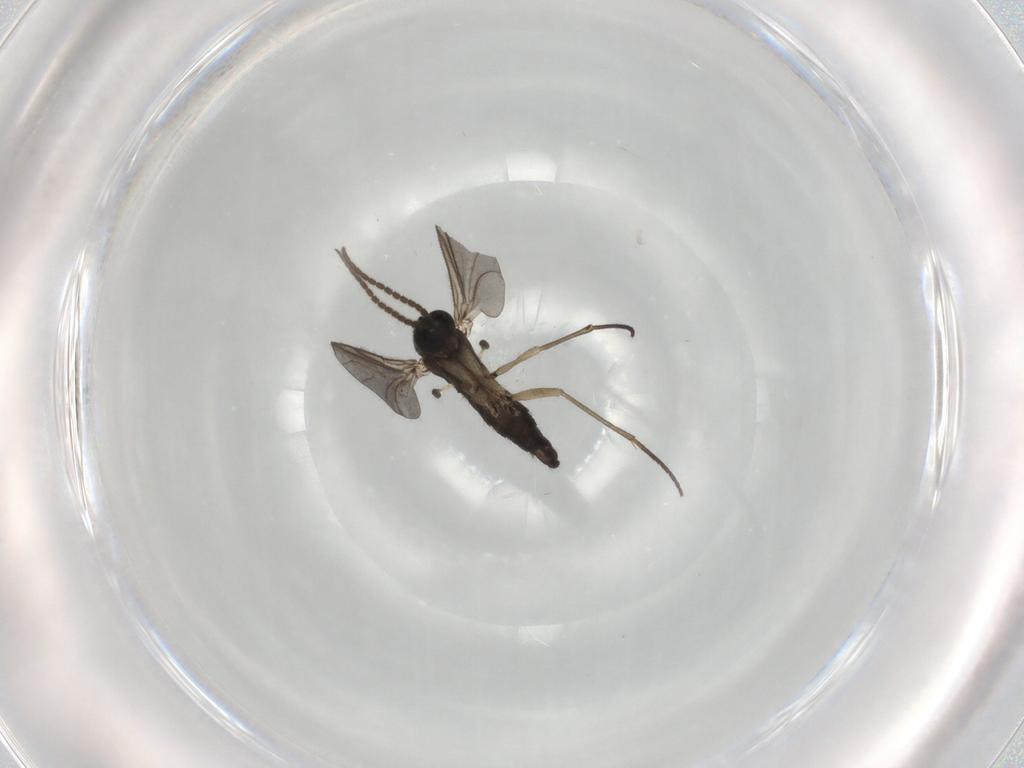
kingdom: Animalia
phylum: Arthropoda
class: Insecta
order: Diptera
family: Sciaridae
